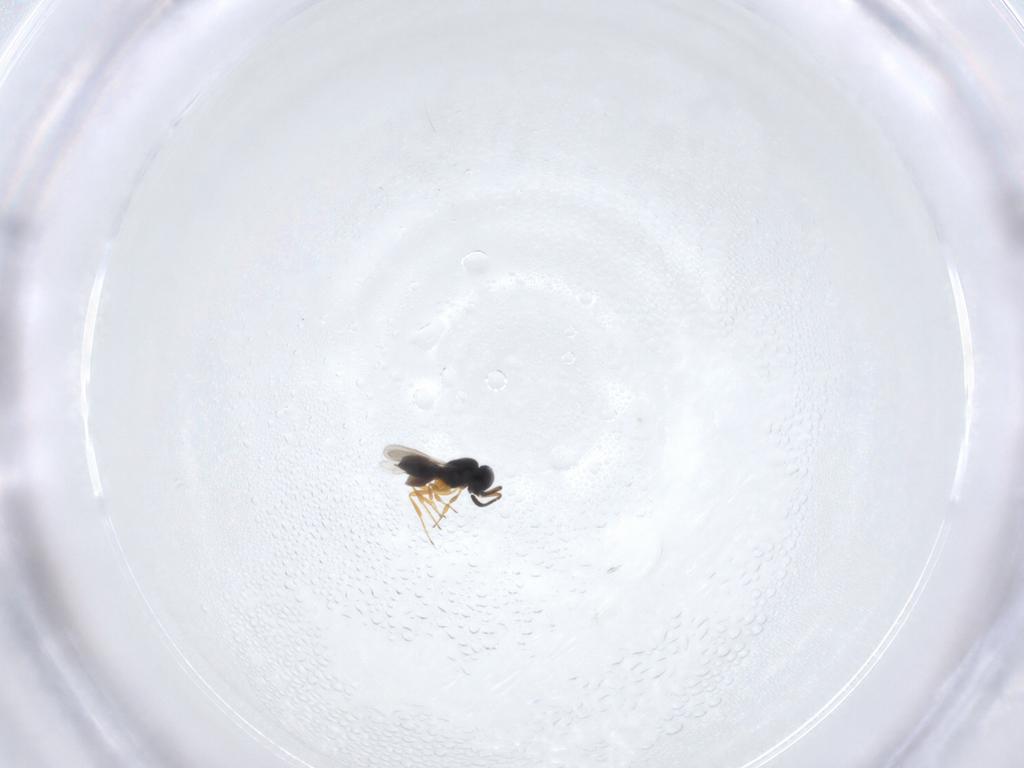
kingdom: Animalia
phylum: Arthropoda
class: Insecta
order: Hymenoptera
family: Scelionidae
